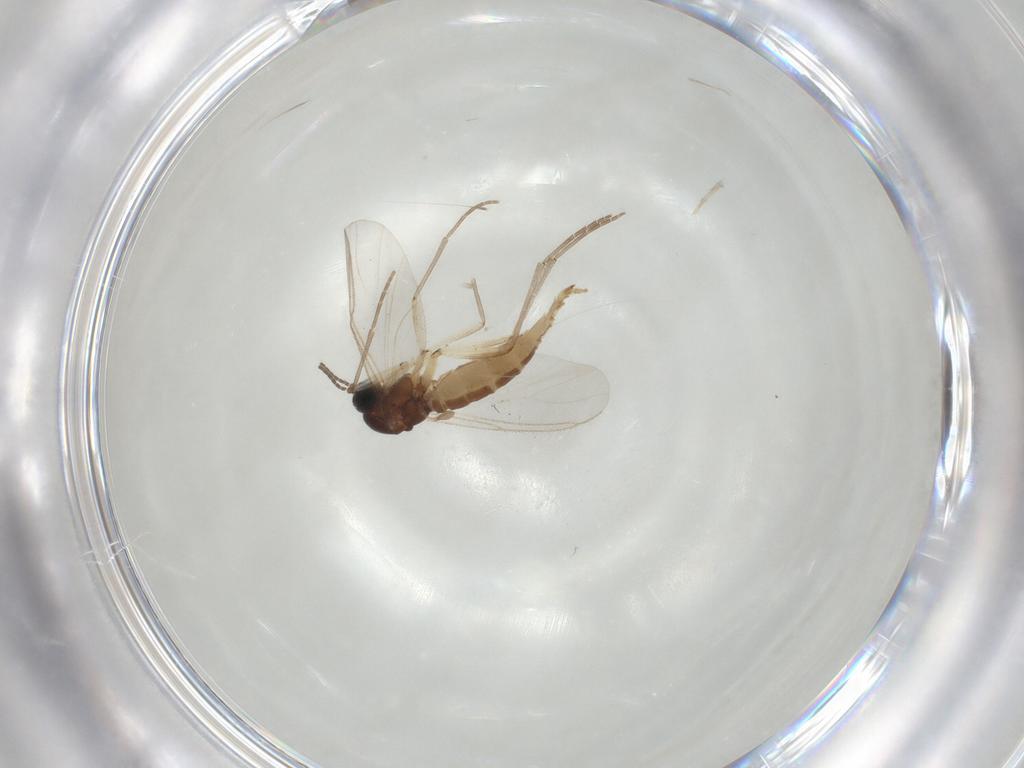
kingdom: Animalia
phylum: Arthropoda
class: Insecta
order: Diptera
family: Sciaridae
